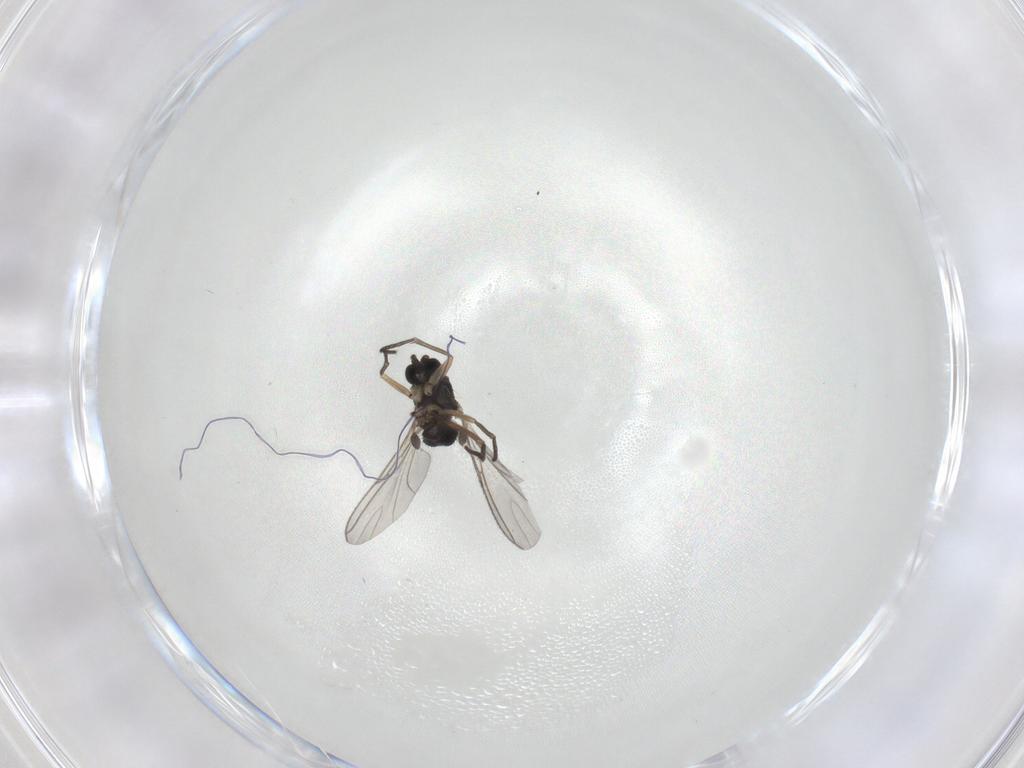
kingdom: Animalia
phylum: Arthropoda
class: Insecta
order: Diptera
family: Sciaridae
